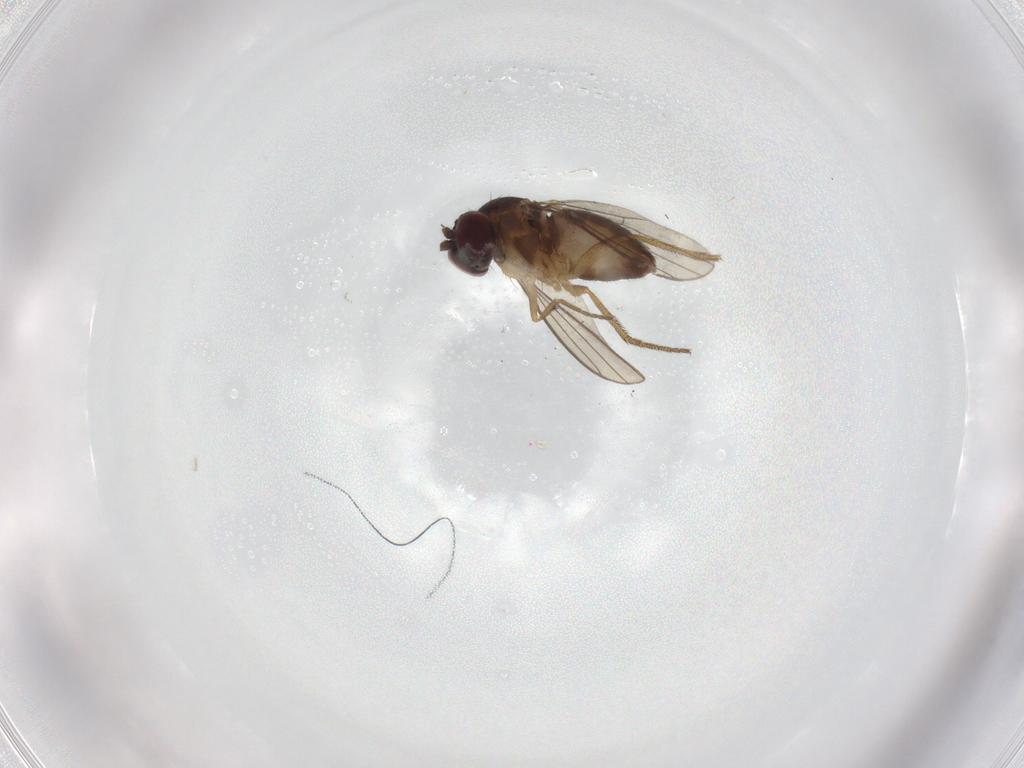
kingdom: Animalia
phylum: Arthropoda
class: Insecta
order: Diptera
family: Dolichopodidae
